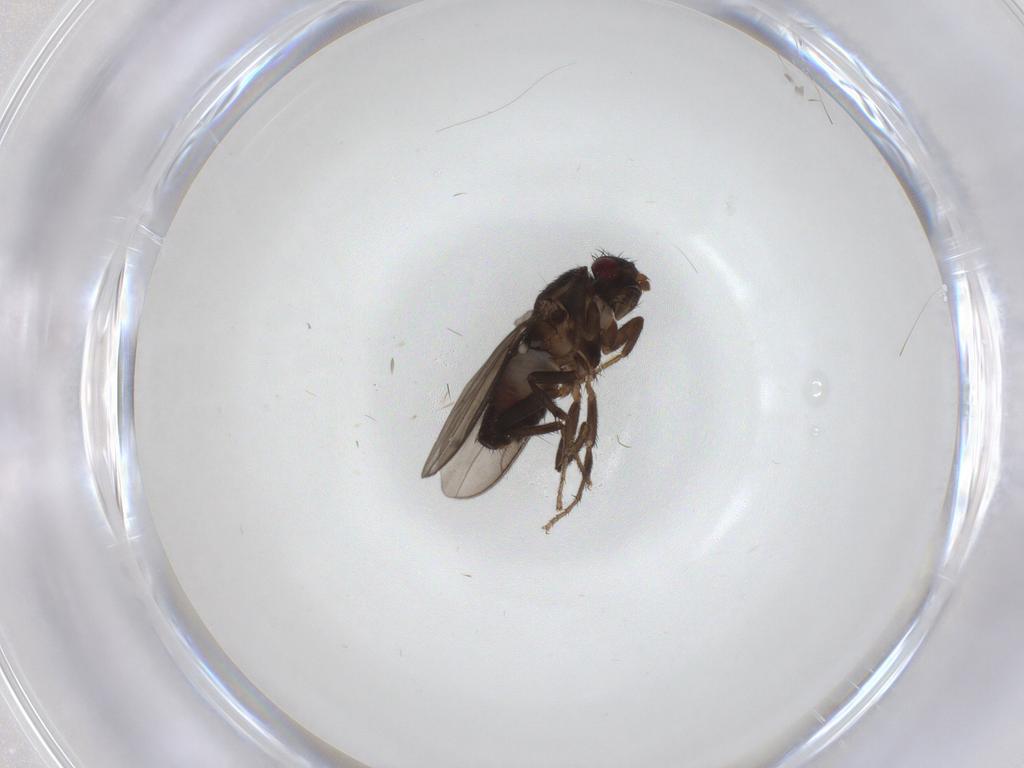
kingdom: Animalia
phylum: Arthropoda
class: Insecta
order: Diptera
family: Sphaeroceridae
